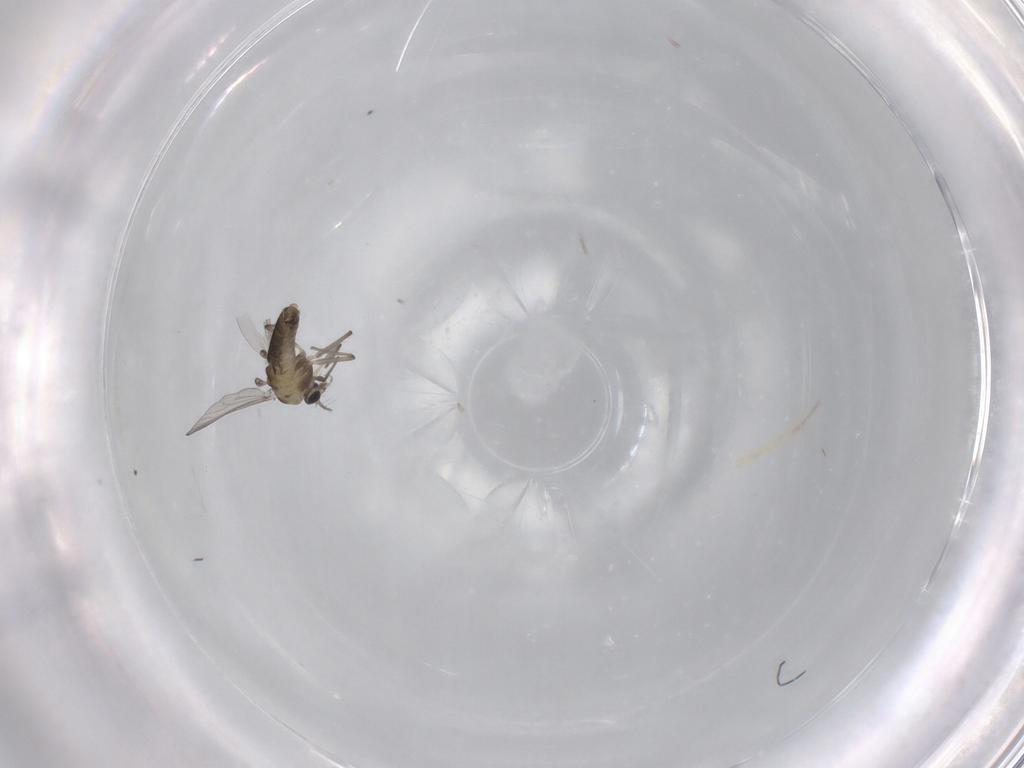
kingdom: Animalia
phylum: Arthropoda
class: Insecta
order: Diptera
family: Chironomidae
